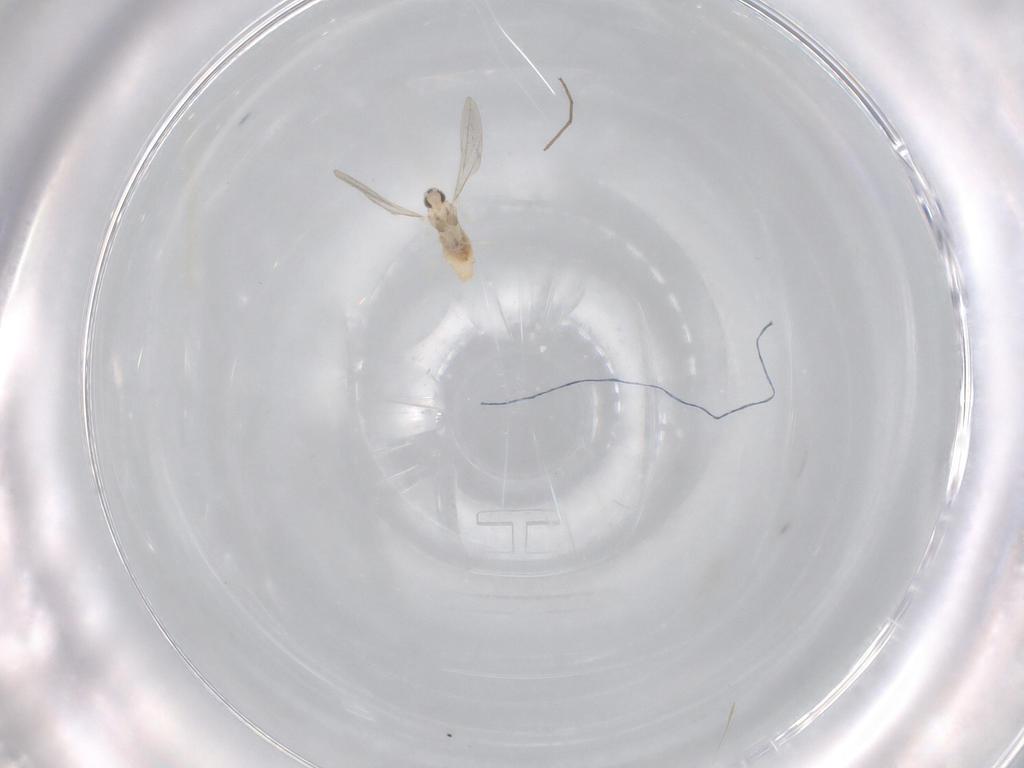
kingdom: Animalia
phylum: Arthropoda
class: Insecta
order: Diptera
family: Cecidomyiidae
